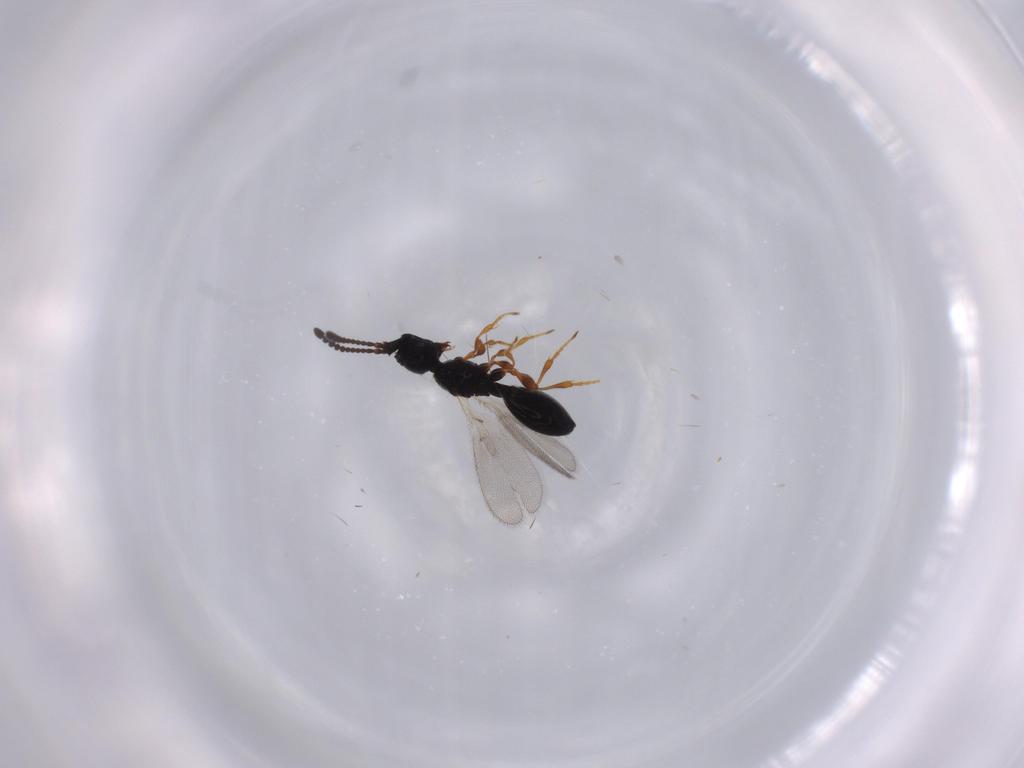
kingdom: Animalia
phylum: Arthropoda
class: Insecta
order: Hymenoptera
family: Diapriidae
